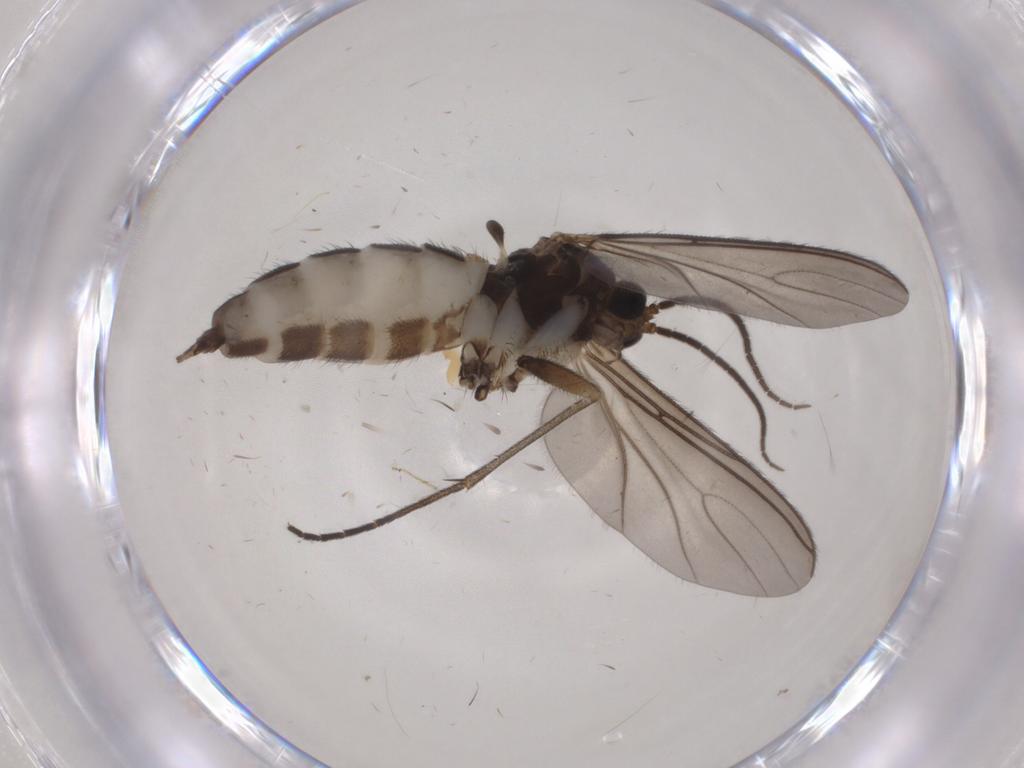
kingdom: Animalia
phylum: Arthropoda
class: Insecta
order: Diptera
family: Sciaridae
